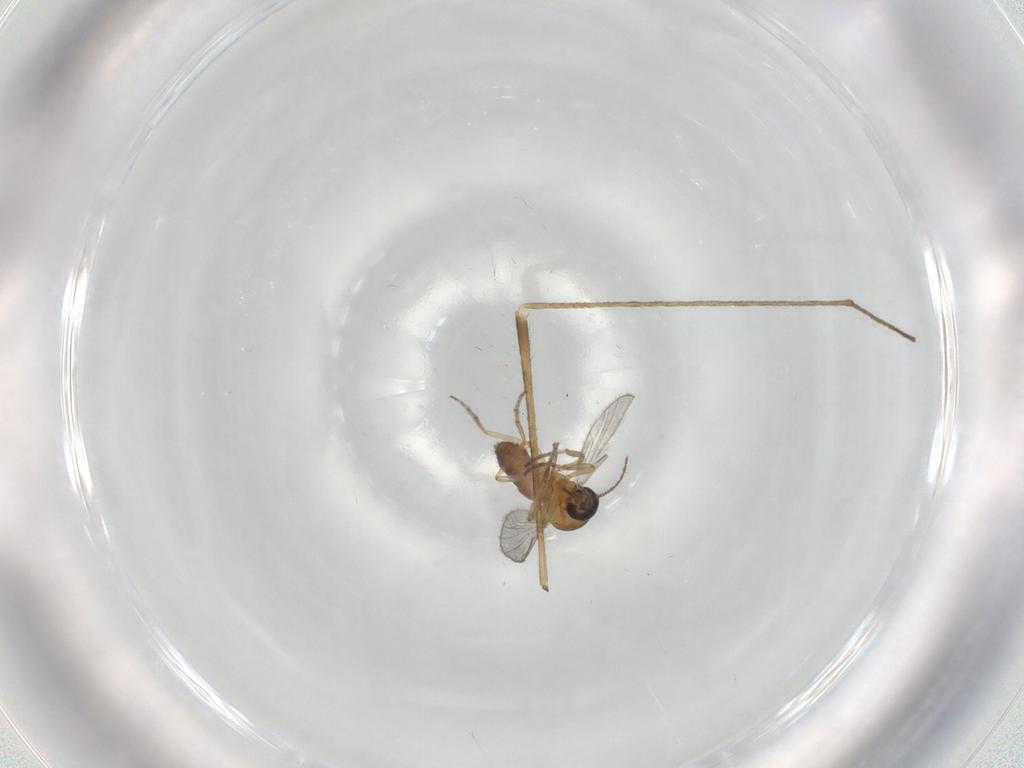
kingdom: Animalia
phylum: Arthropoda
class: Insecta
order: Diptera
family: Limoniidae
